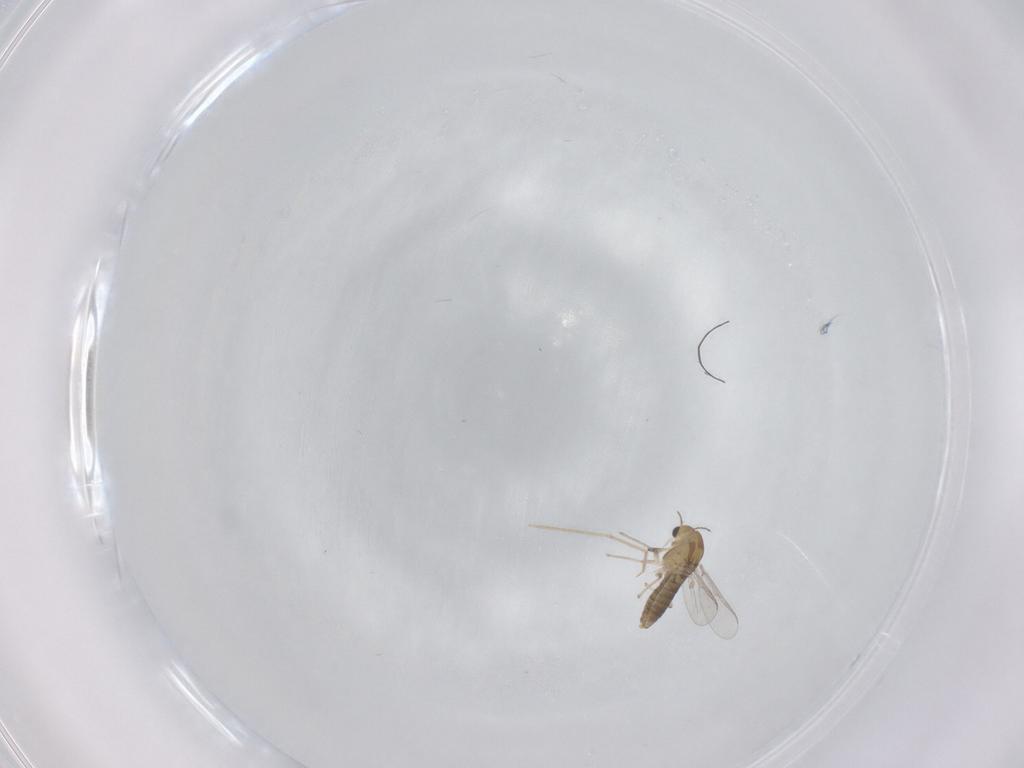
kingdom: Animalia
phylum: Arthropoda
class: Insecta
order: Diptera
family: Chironomidae
